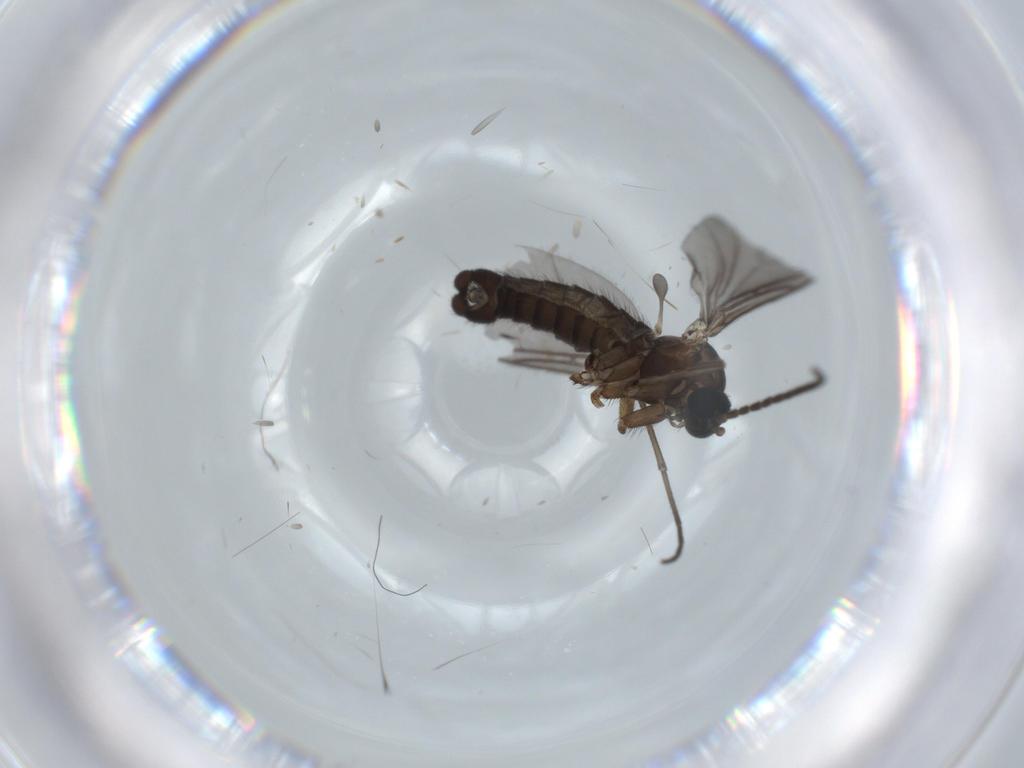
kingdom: Animalia
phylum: Arthropoda
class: Insecta
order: Diptera
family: Sciaridae
